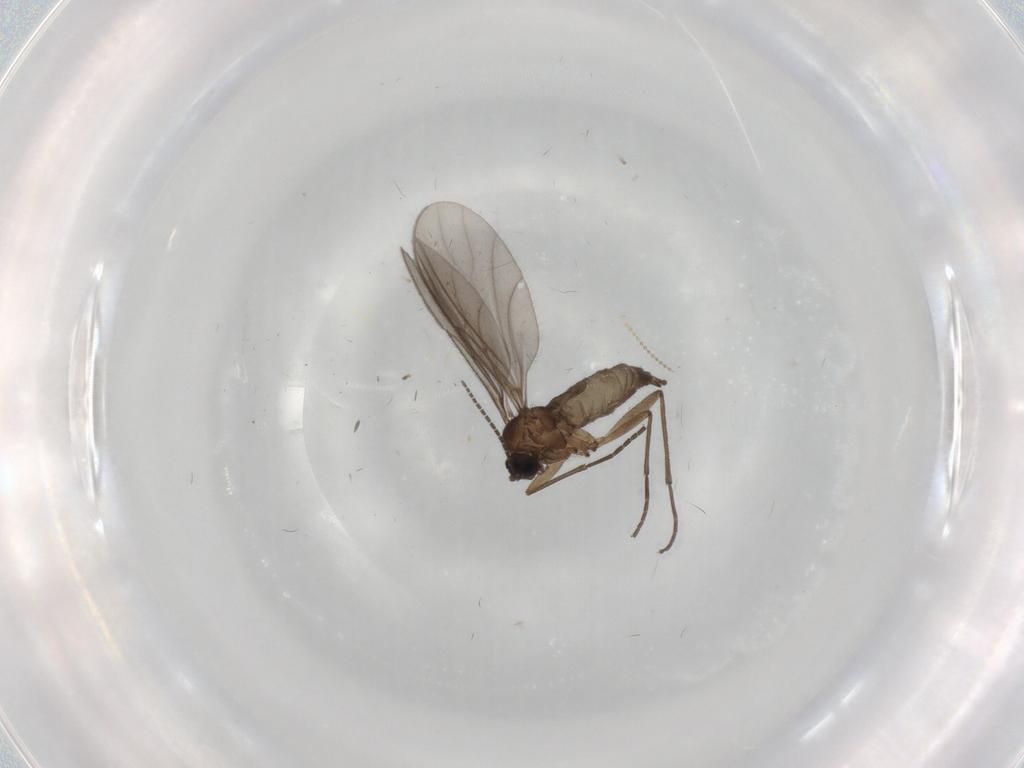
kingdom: Animalia
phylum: Arthropoda
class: Insecta
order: Diptera
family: Sciaridae
